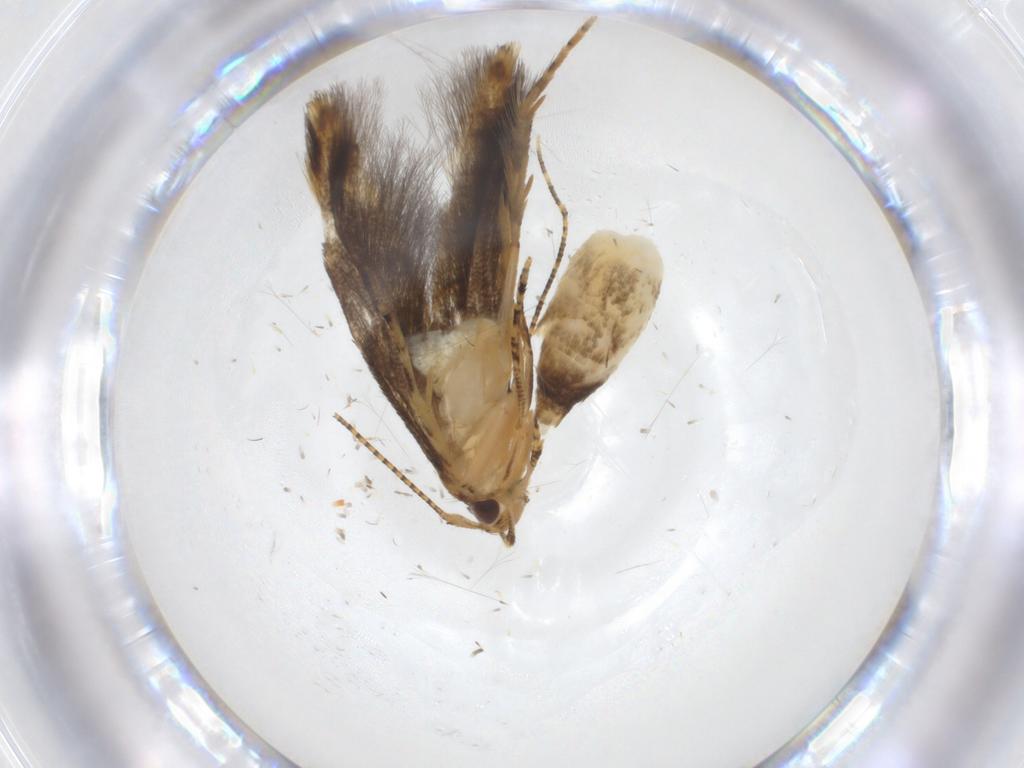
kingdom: Animalia
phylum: Arthropoda
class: Insecta
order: Lepidoptera
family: Erebidae
